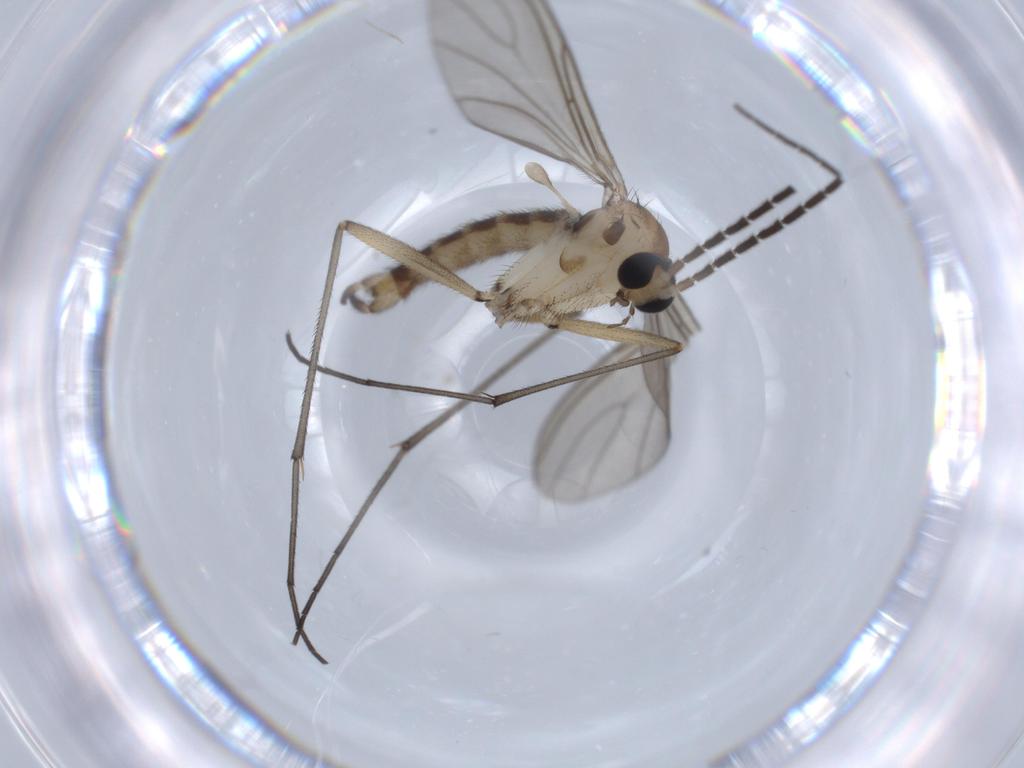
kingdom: Animalia
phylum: Arthropoda
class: Insecta
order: Diptera
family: Sciaridae
